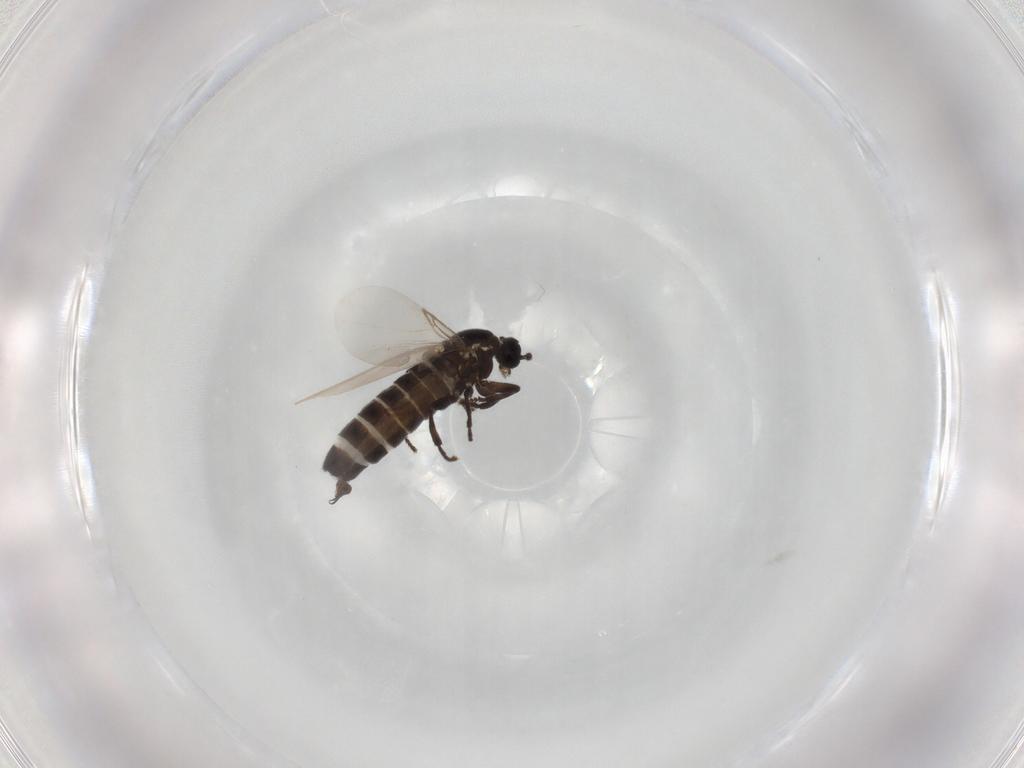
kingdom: Animalia
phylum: Arthropoda
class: Insecta
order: Diptera
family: Scatopsidae
